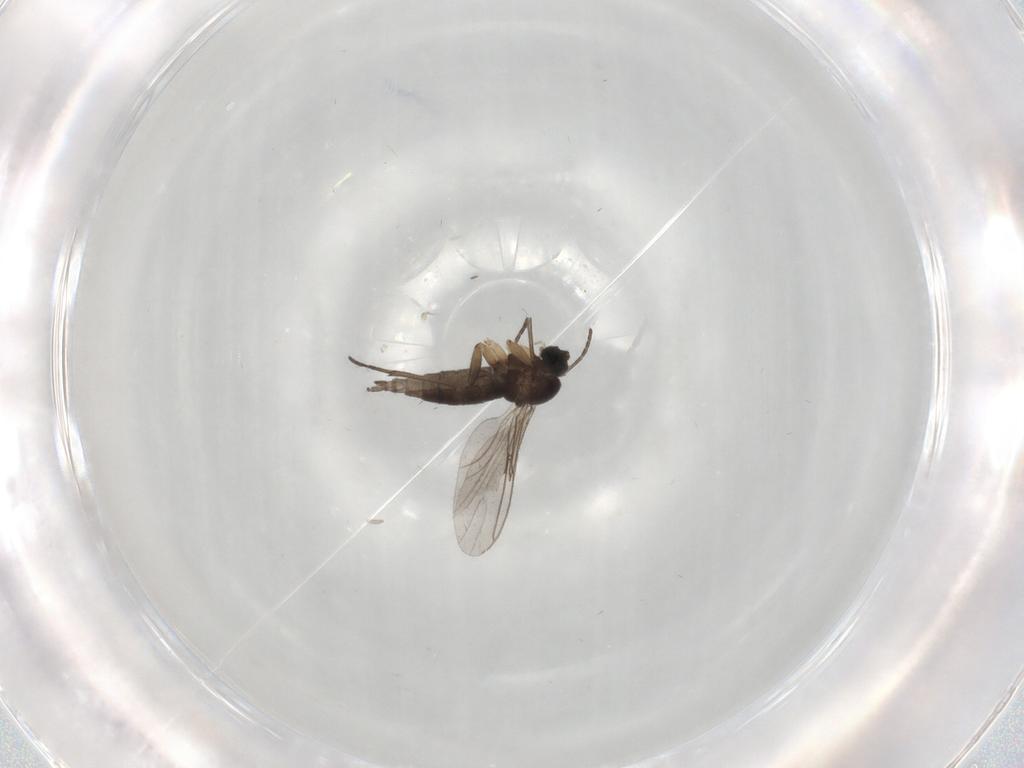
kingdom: Animalia
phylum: Arthropoda
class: Insecta
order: Diptera
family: Sciaridae
